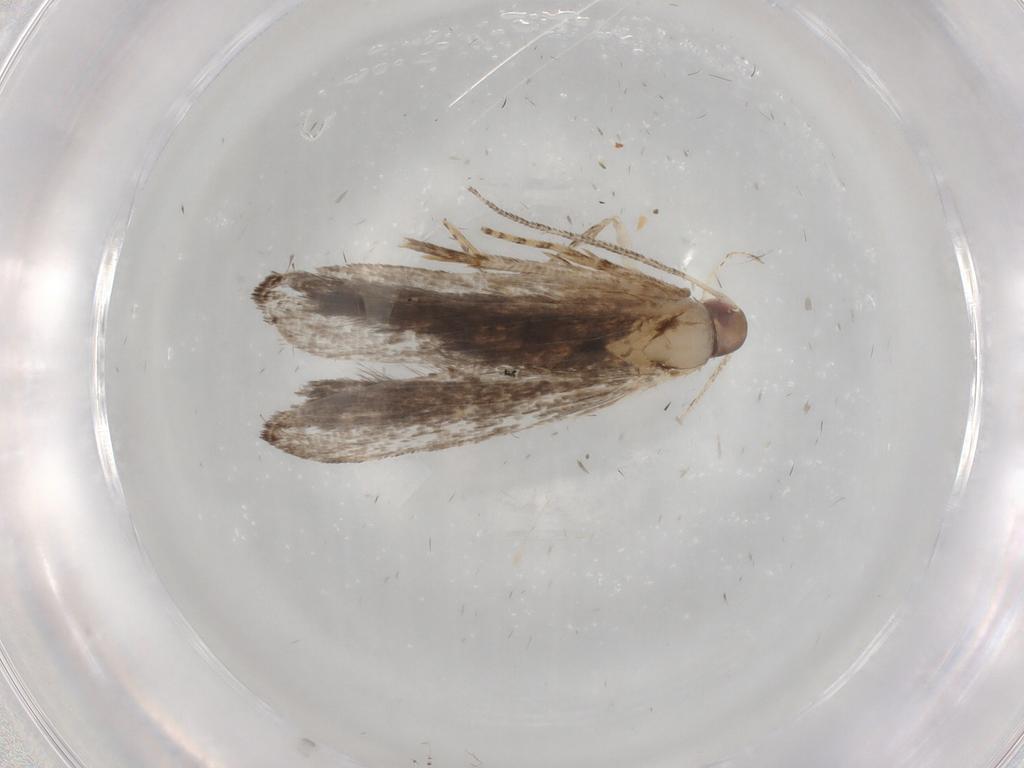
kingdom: Animalia
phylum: Arthropoda
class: Insecta
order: Lepidoptera
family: Gelechiidae
